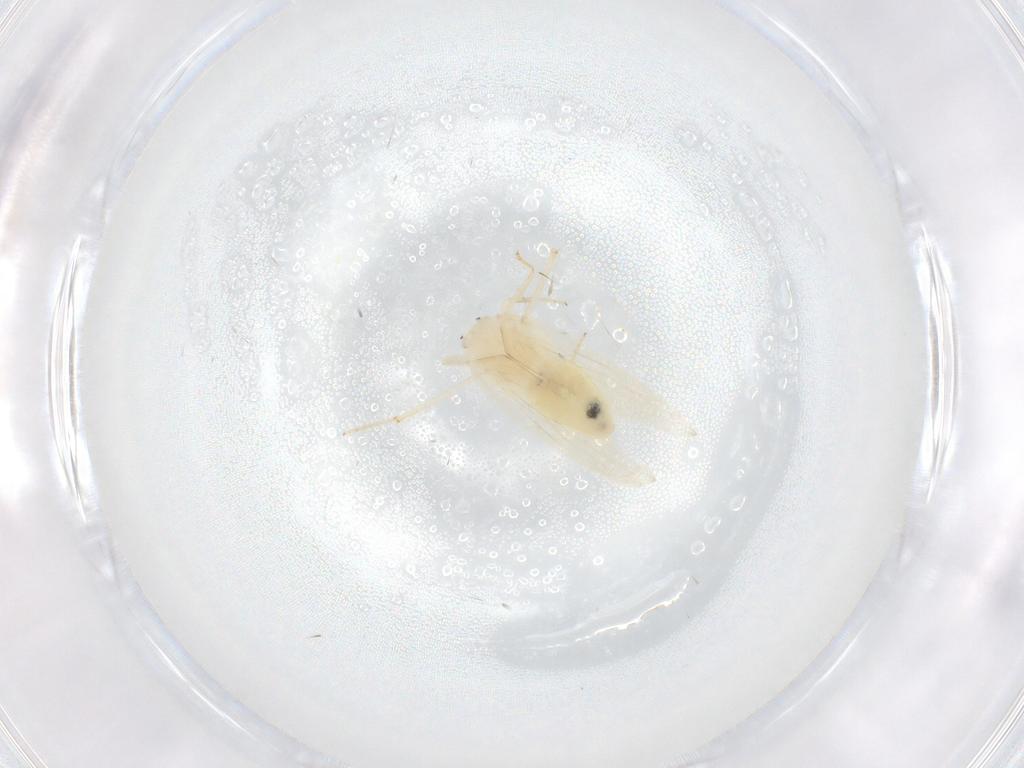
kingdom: Animalia
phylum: Arthropoda
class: Insecta
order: Psocodea
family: Lepidopsocidae
